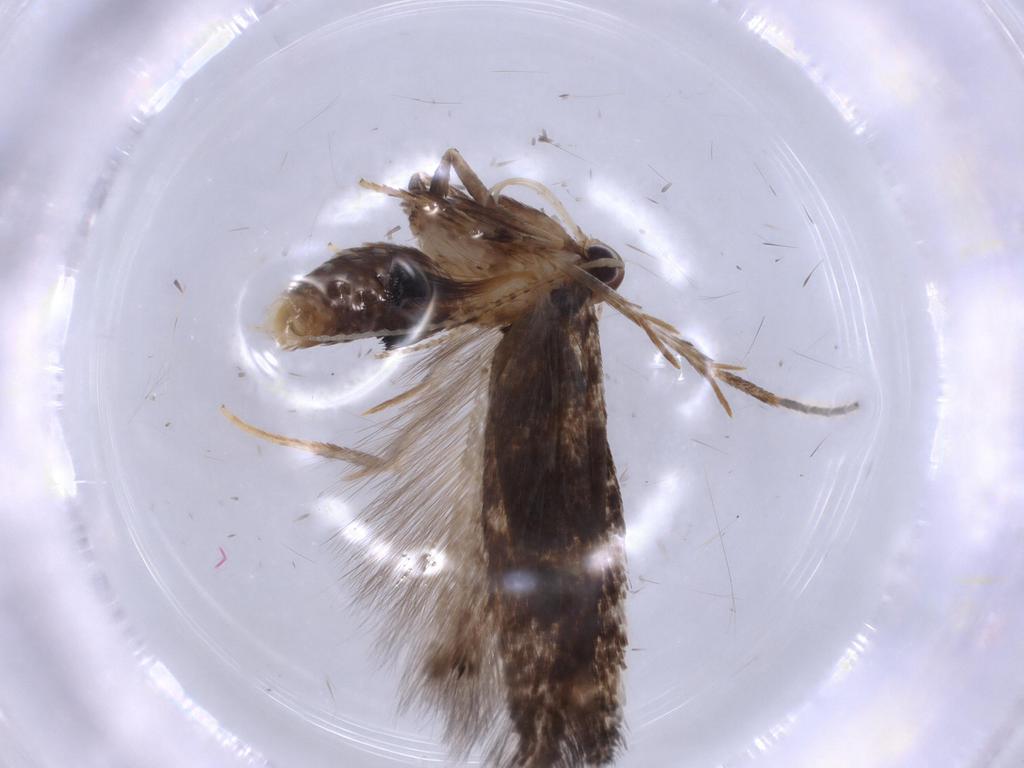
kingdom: Animalia
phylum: Arthropoda
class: Insecta
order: Lepidoptera
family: Cosmopterigidae
